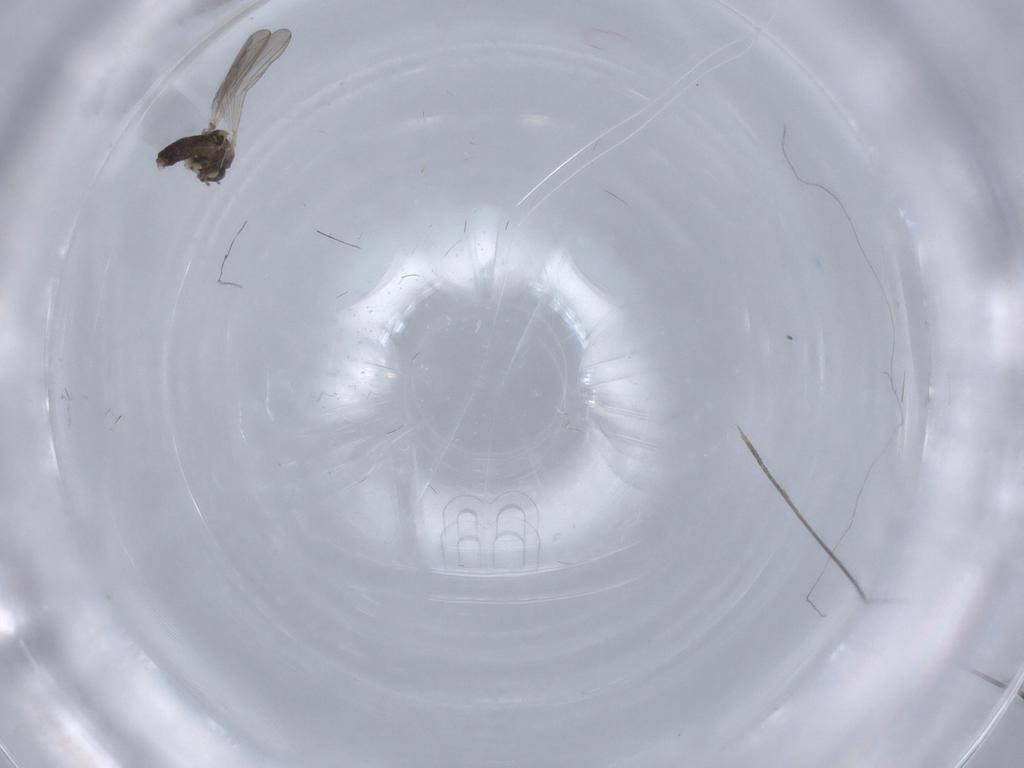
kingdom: Animalia
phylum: Arthropoda
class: Insecta
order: Diptera
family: Chironomidae
